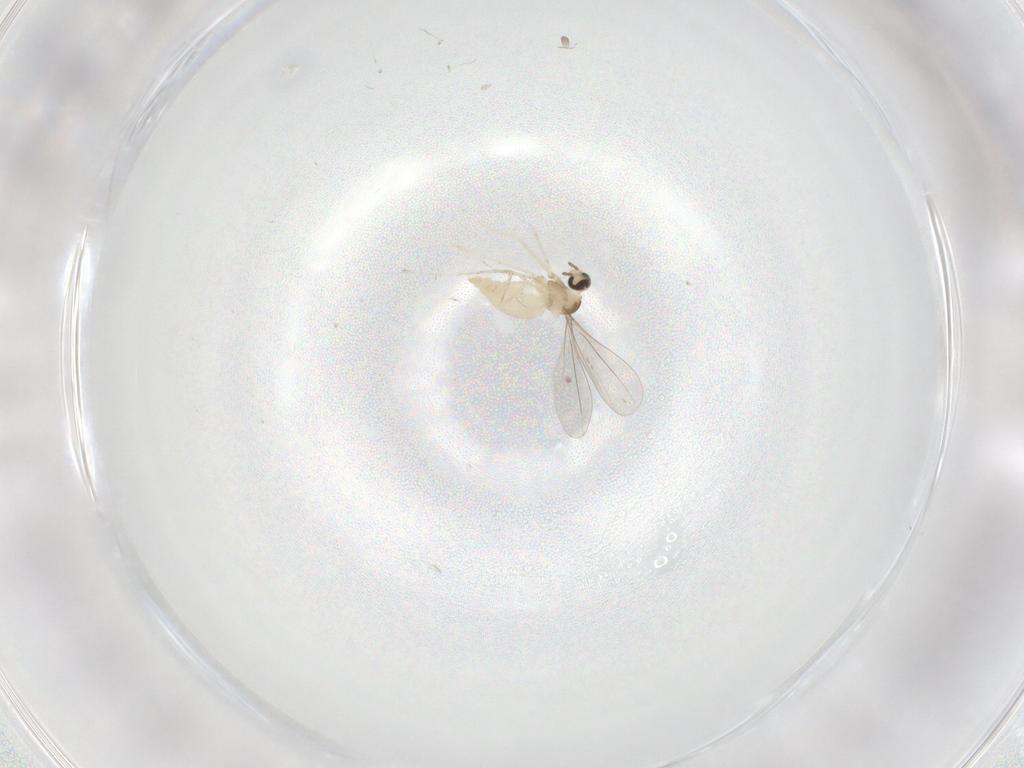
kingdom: Animalia
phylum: Arthropoda
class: Insecta
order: Diptera
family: Cecidomyiidae
